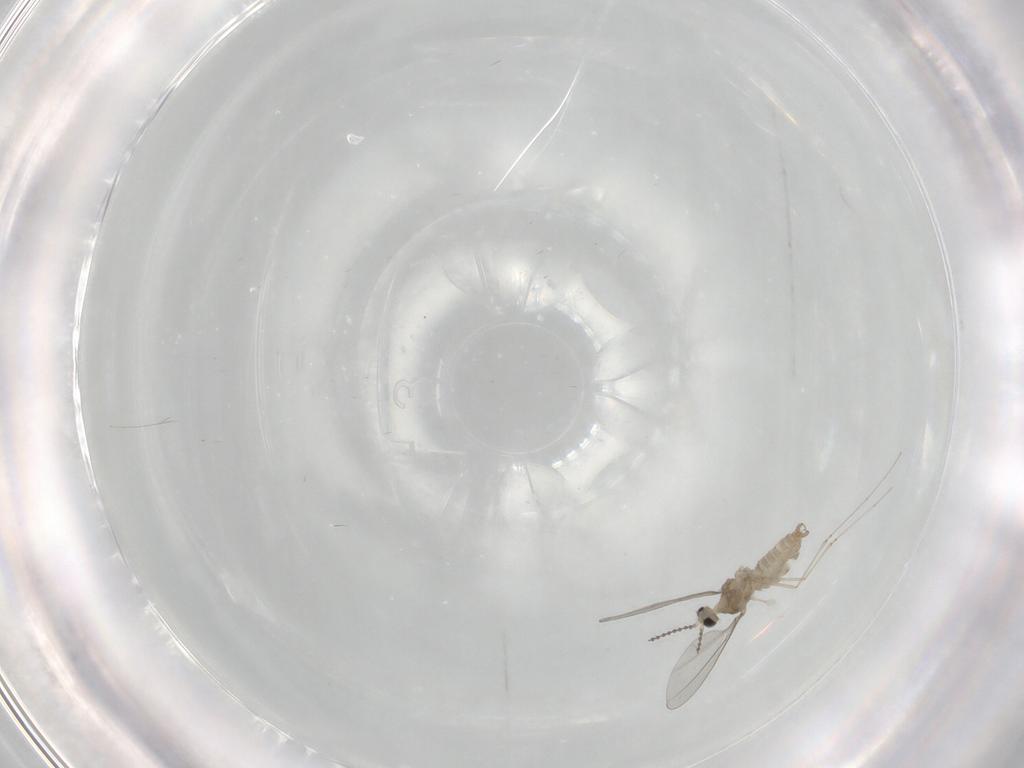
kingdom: Animalia
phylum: Arthropoda
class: Insecta
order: Diptera
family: Cecidomyiidae
